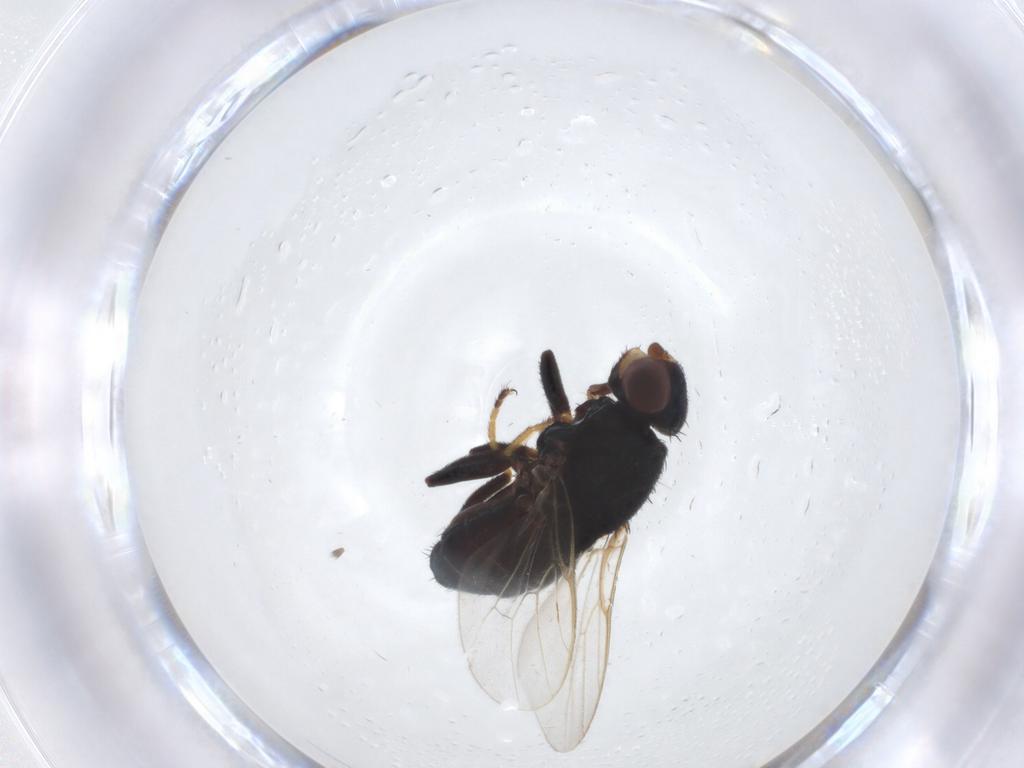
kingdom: Animalia
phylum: Arthropoda
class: Insecta
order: Diptera
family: Chloropidae
